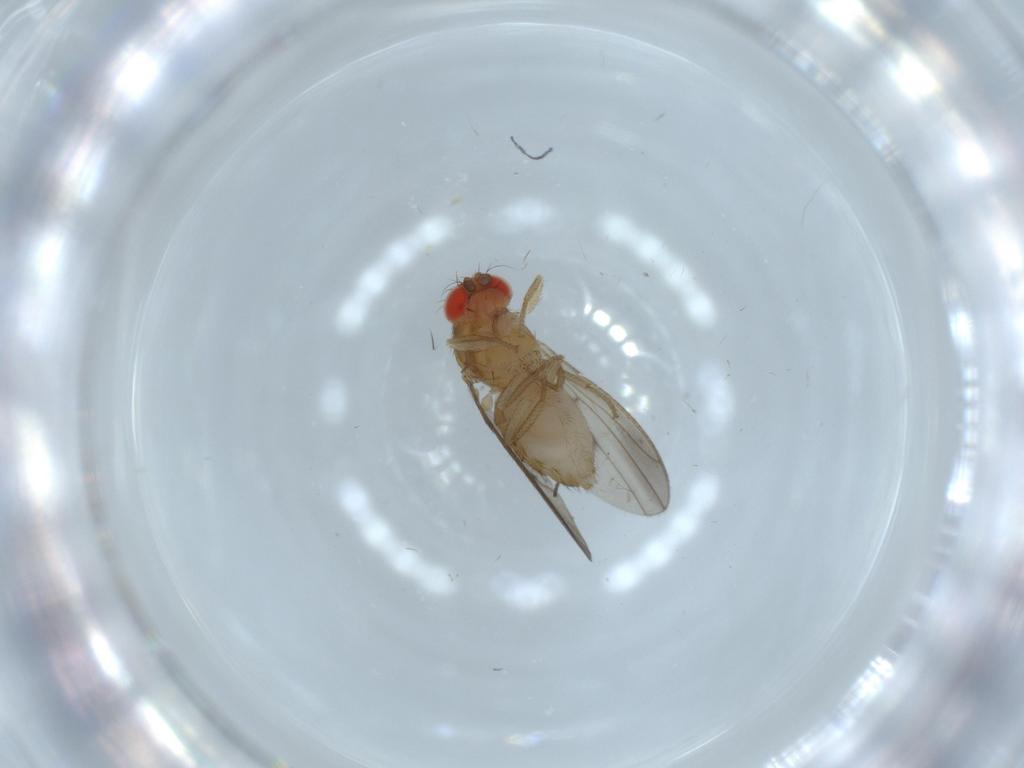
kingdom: Animalia
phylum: Arthropoda
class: Insecta
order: Diptera
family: Drosophilidae
